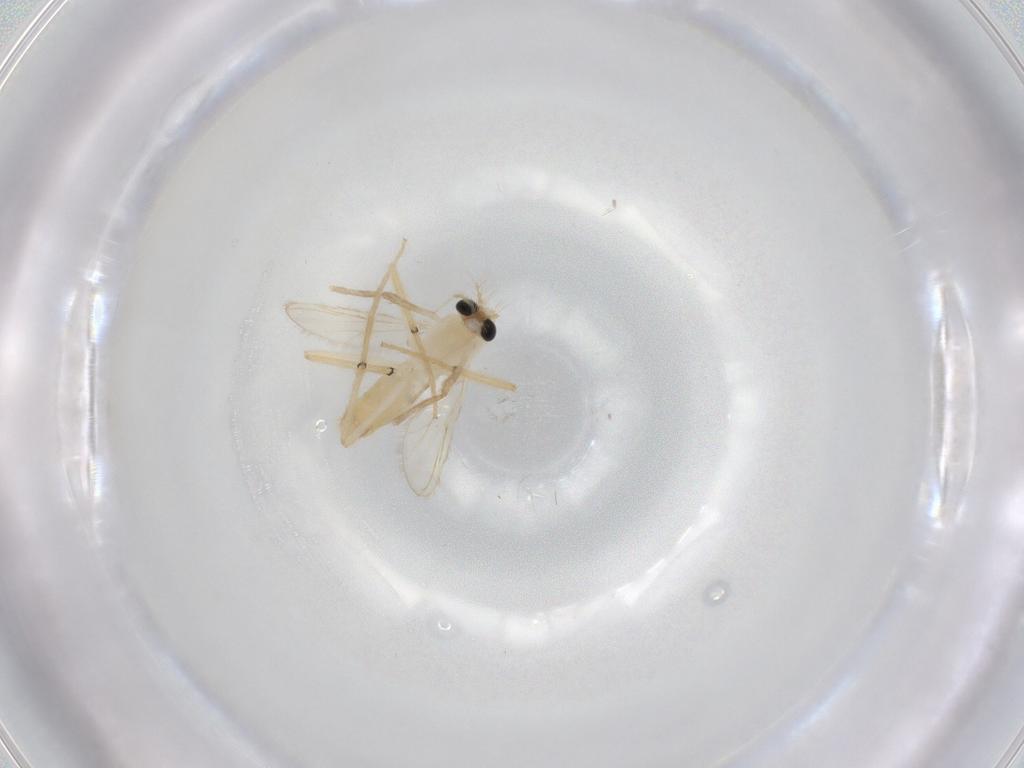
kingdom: Animalia
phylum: Arthropoda
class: Insecta
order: Diptera
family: Chironomidae
